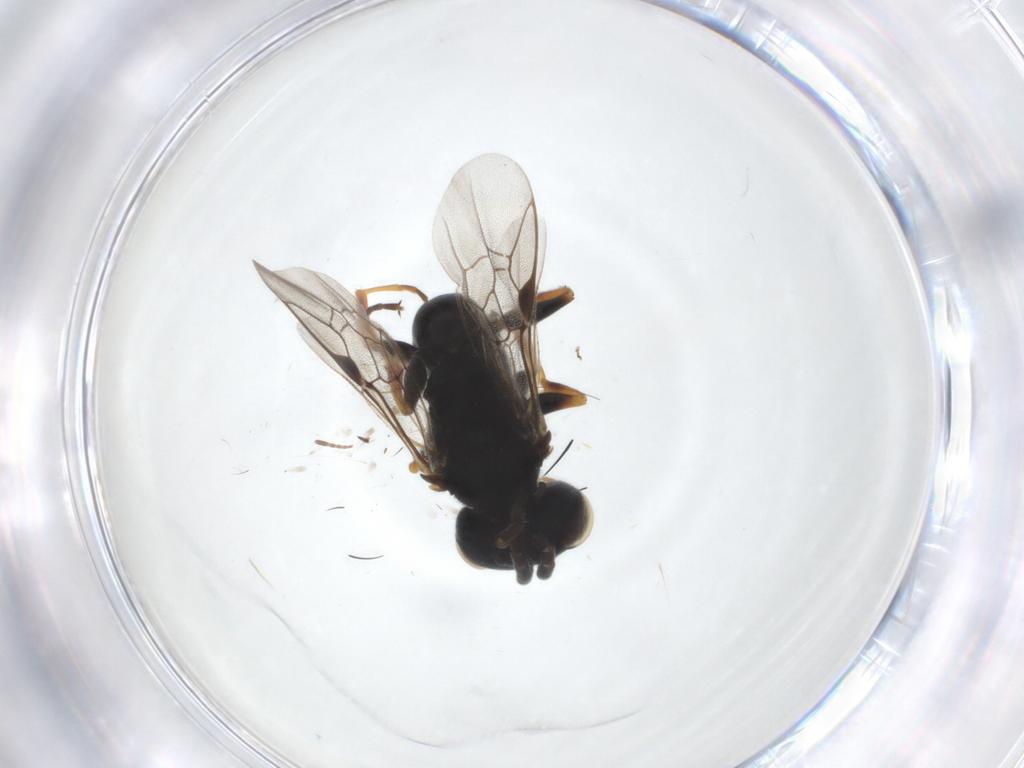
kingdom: Animalia
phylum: Arthropoda
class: Insecta
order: Hymenoptera
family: Pemphredonidae
